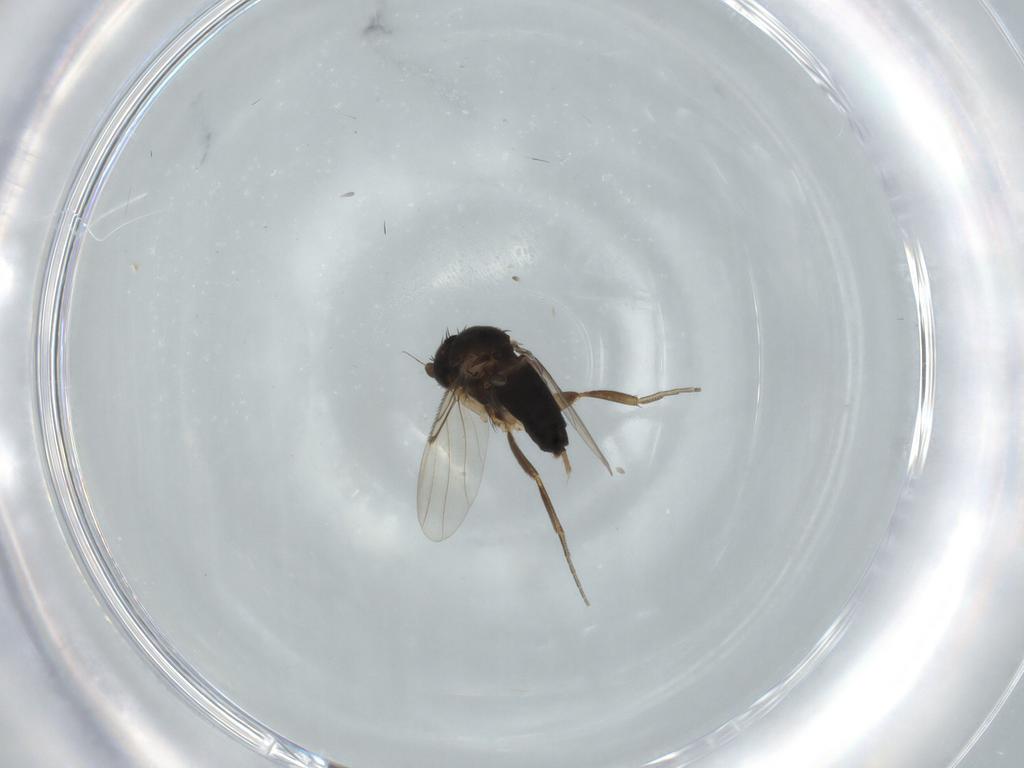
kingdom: Animalia
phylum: Arthropoda
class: Insecta
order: Diptera
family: Phoridae
